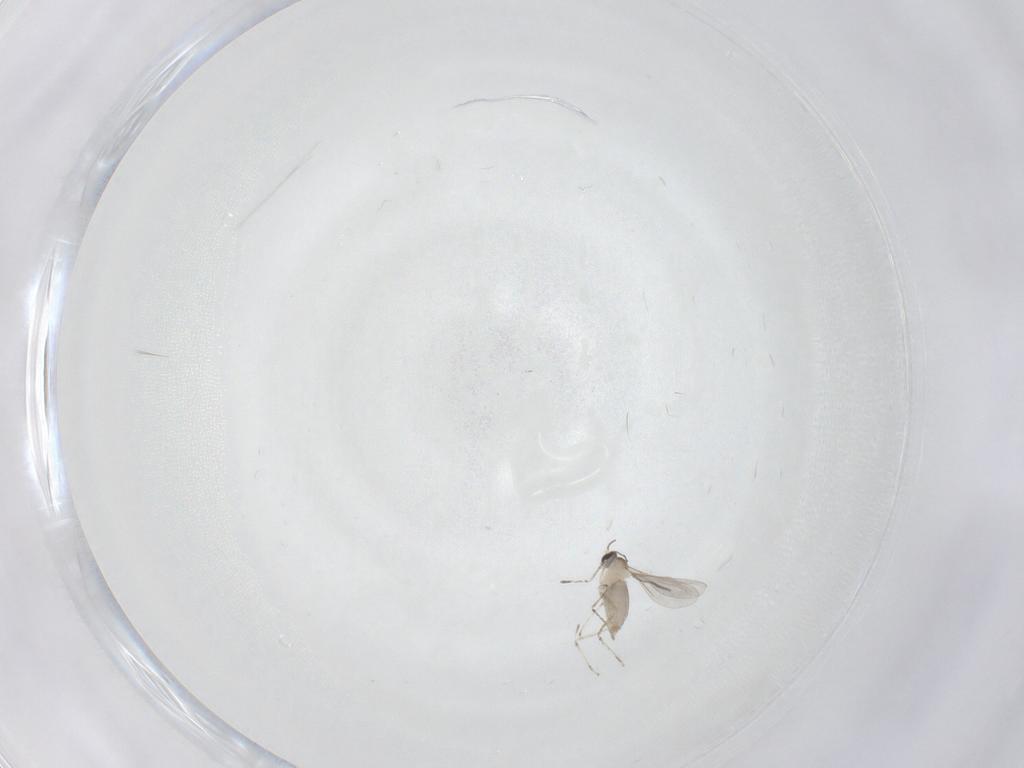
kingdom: Animalia
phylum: Arthropoda
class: Insecta
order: Diptera
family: Cecidomyiidae
